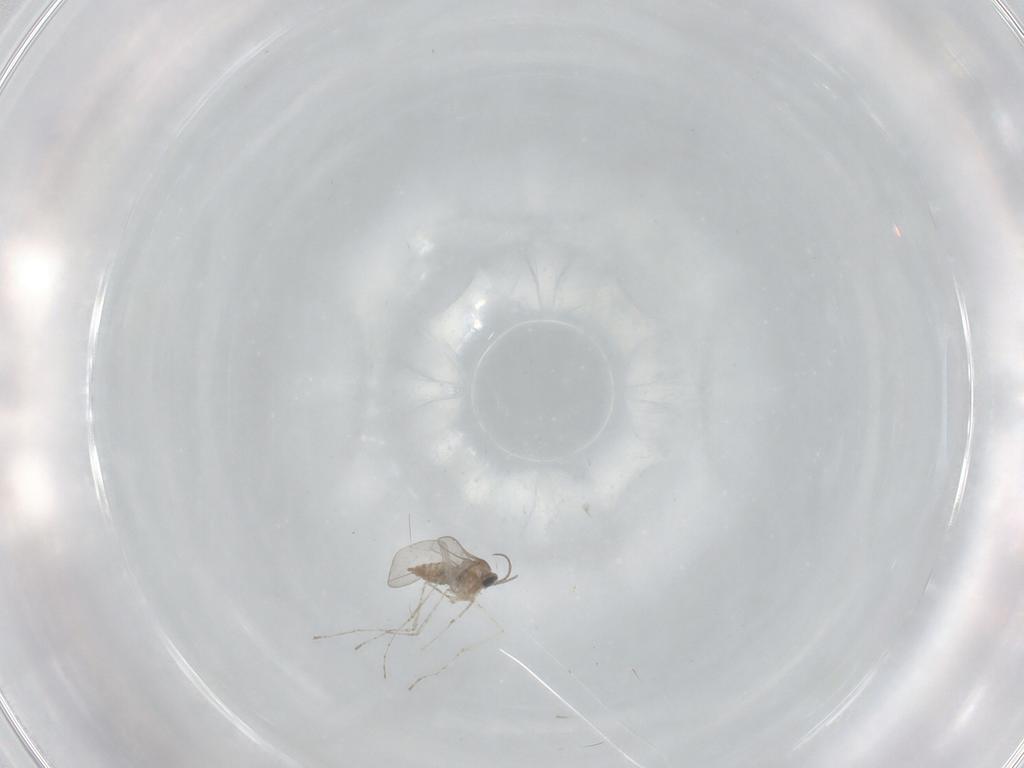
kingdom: Animalia
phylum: Arthropoda
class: Insecta
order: Diptera
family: Cecidomyiidae
